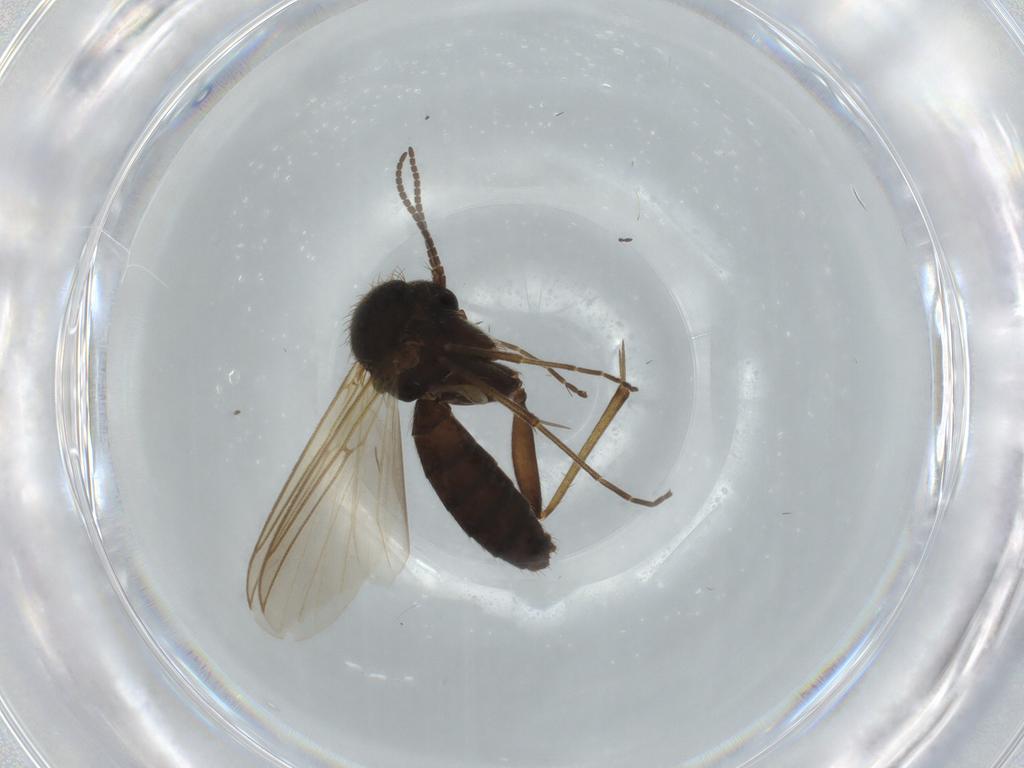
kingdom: Animalia
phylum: Arthropoda
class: Insecta
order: Diptera
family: Mycetophilidae
